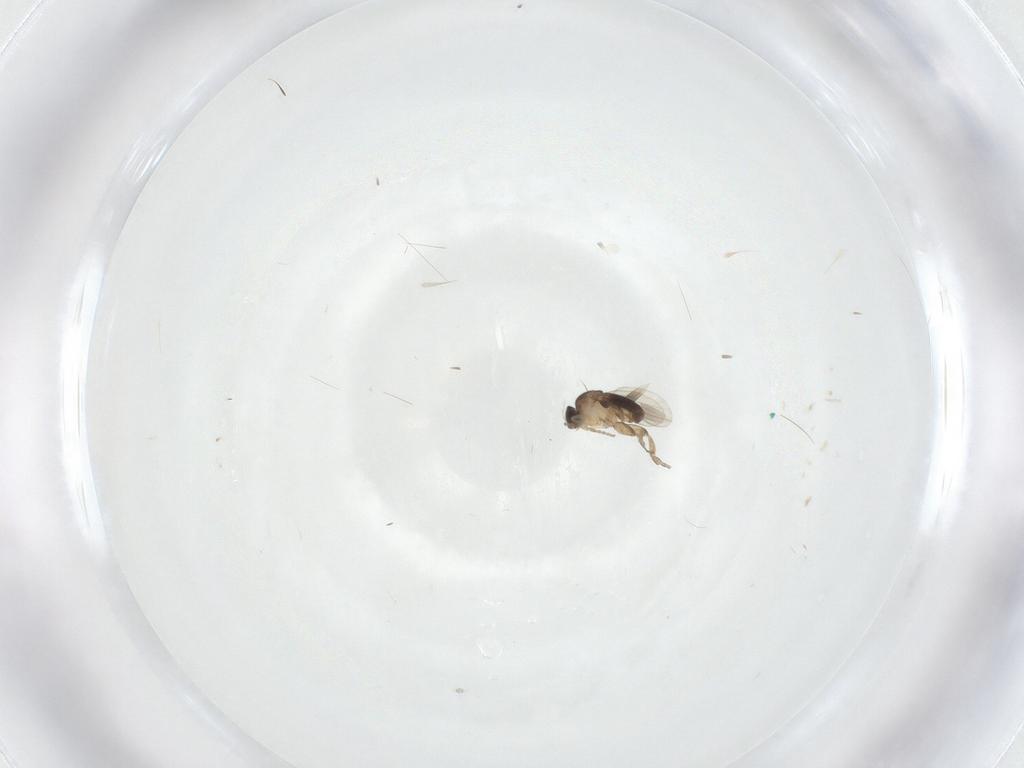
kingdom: Animalia
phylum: Arthropoda
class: Insecta
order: Diptera
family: Phoridae
